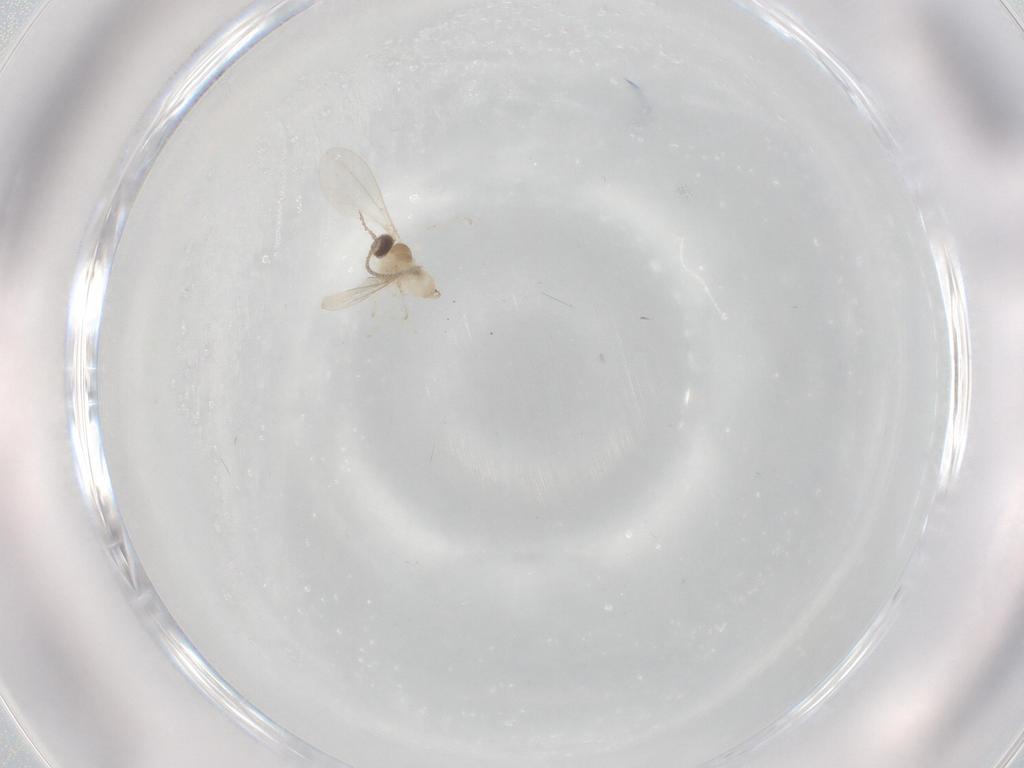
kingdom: Animalia
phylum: Arthropoda
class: Insecta
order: Diptera
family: Cecidomyiidae
